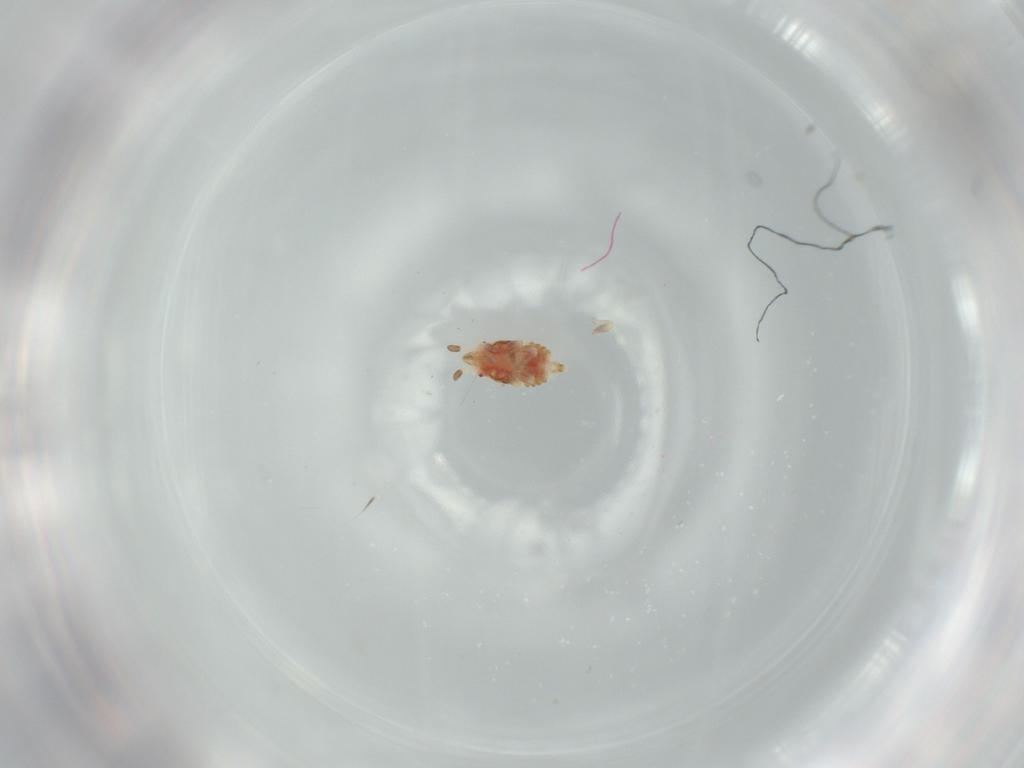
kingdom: Animalia
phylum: Arthropoda
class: Insecta
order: Hemiptera
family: Aradidae
